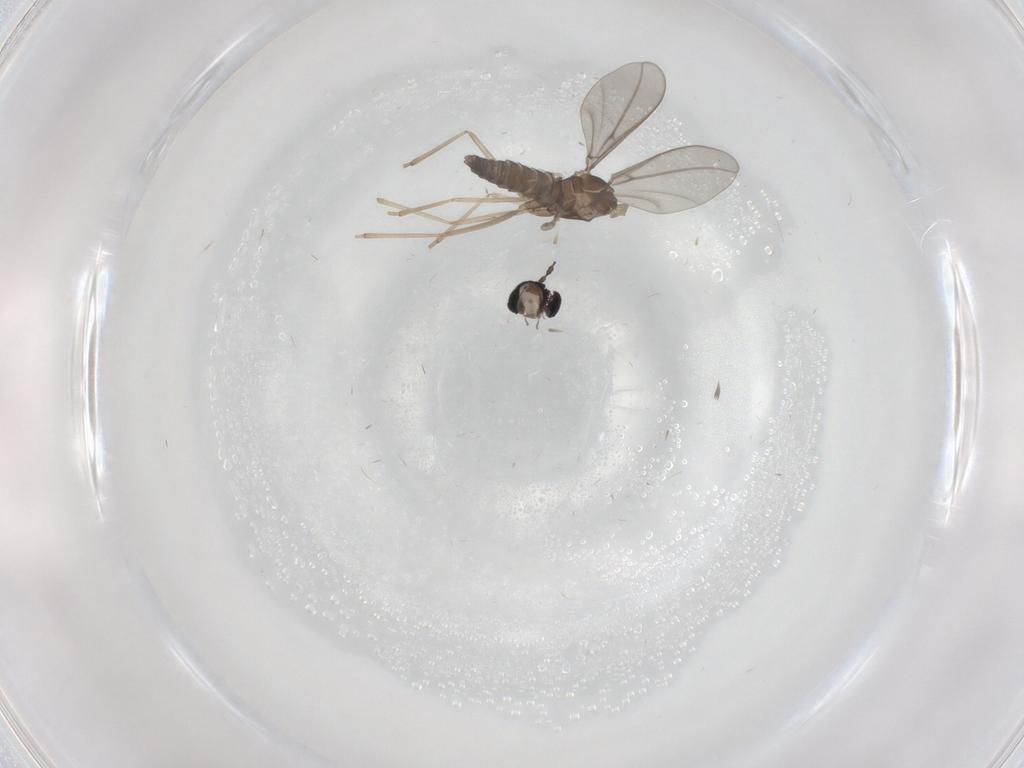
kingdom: Animalia
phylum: Arthropoda
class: Insecta
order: Diptera
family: Cecidomyiidae
